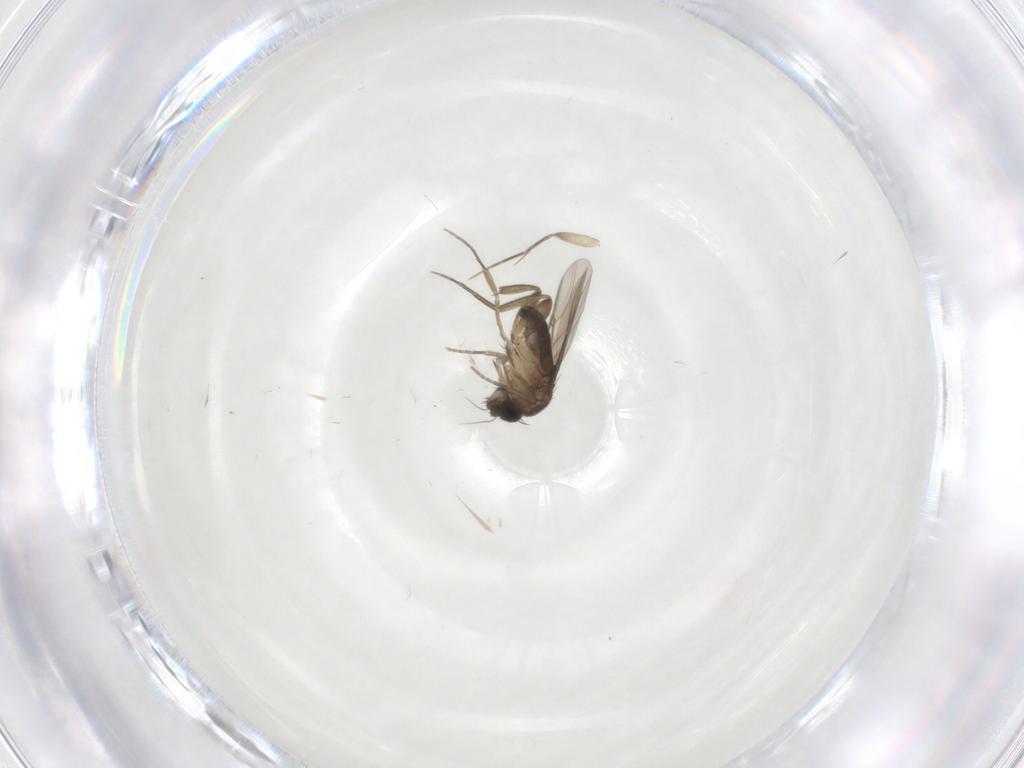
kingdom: Animalia
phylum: Arthropoda
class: Insecta
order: Diptera
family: Phoridae
